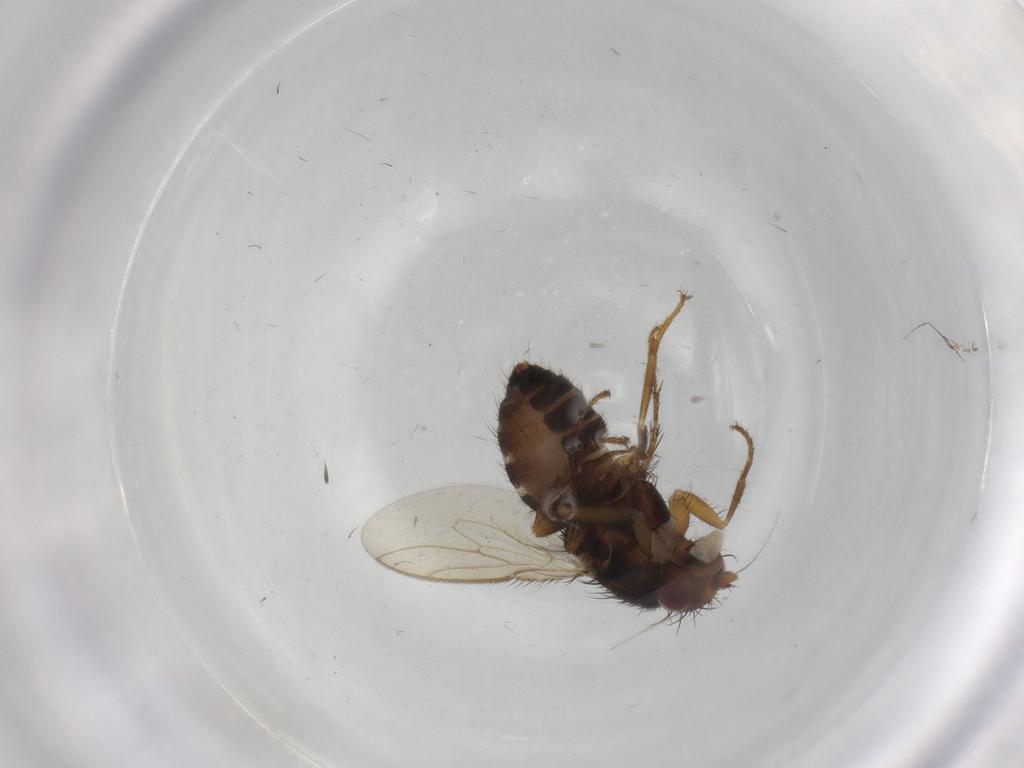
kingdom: Animalia
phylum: Arthropoda
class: Insecta
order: Diptera
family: Sphaeroceridae
